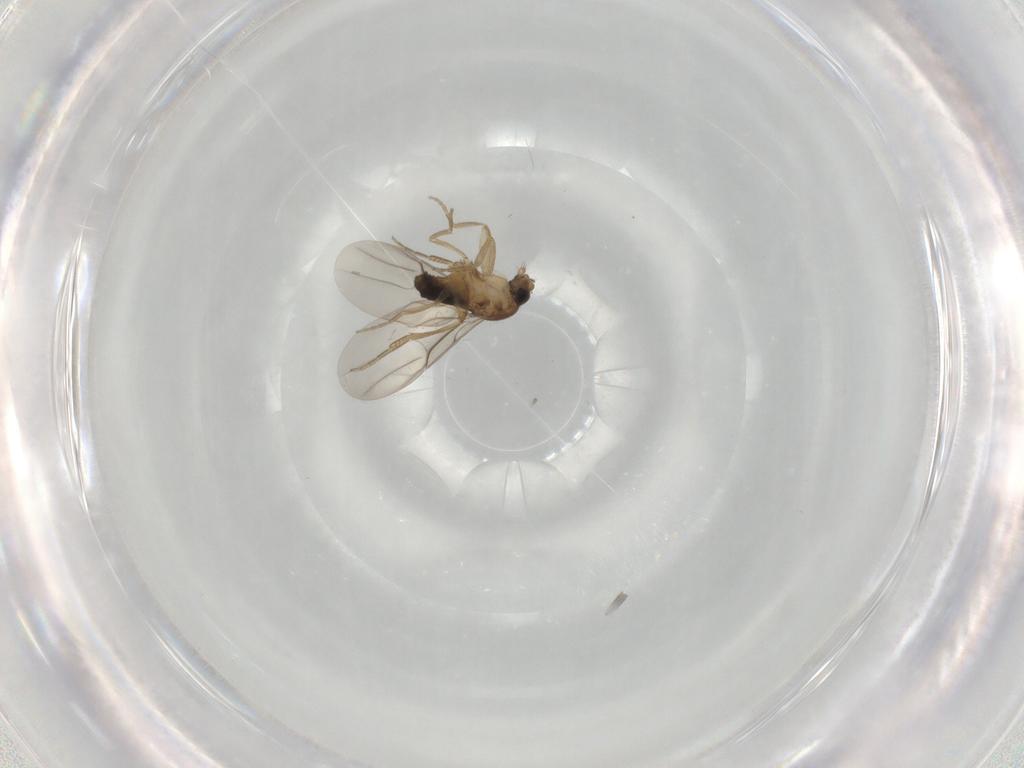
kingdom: Animalia
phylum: Arthropoda
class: Insecta
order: Diptera
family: Phoridae
